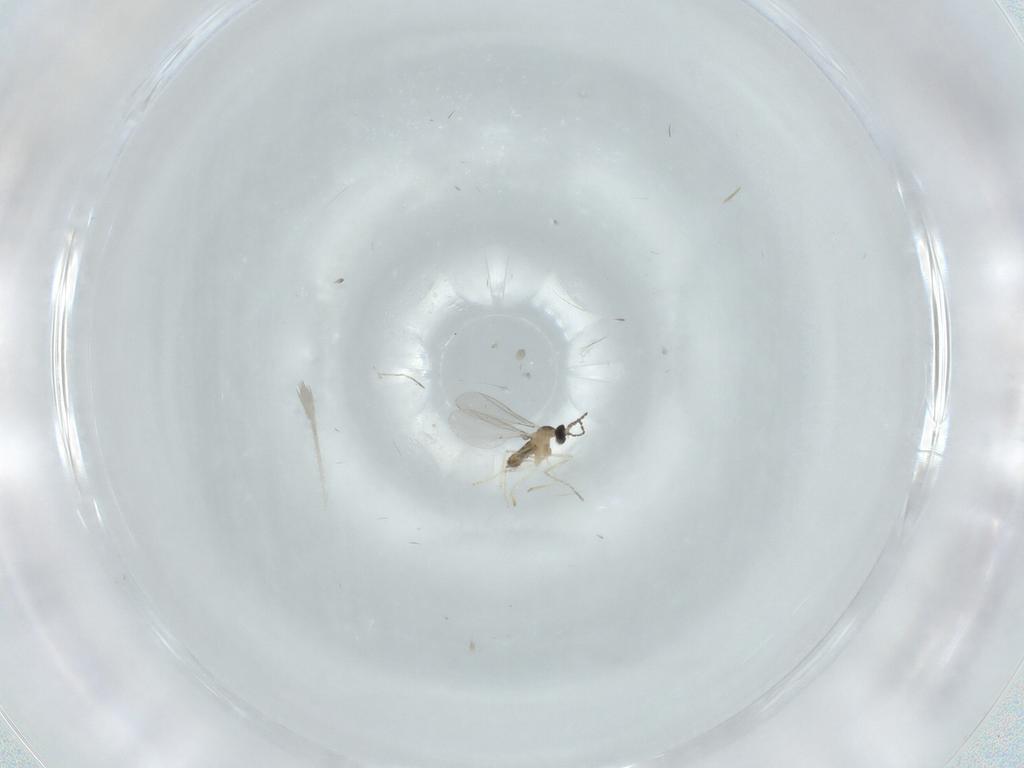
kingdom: Animalia
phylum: Arthropoda
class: Insecta
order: Diptera
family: Cecidomyiidae
